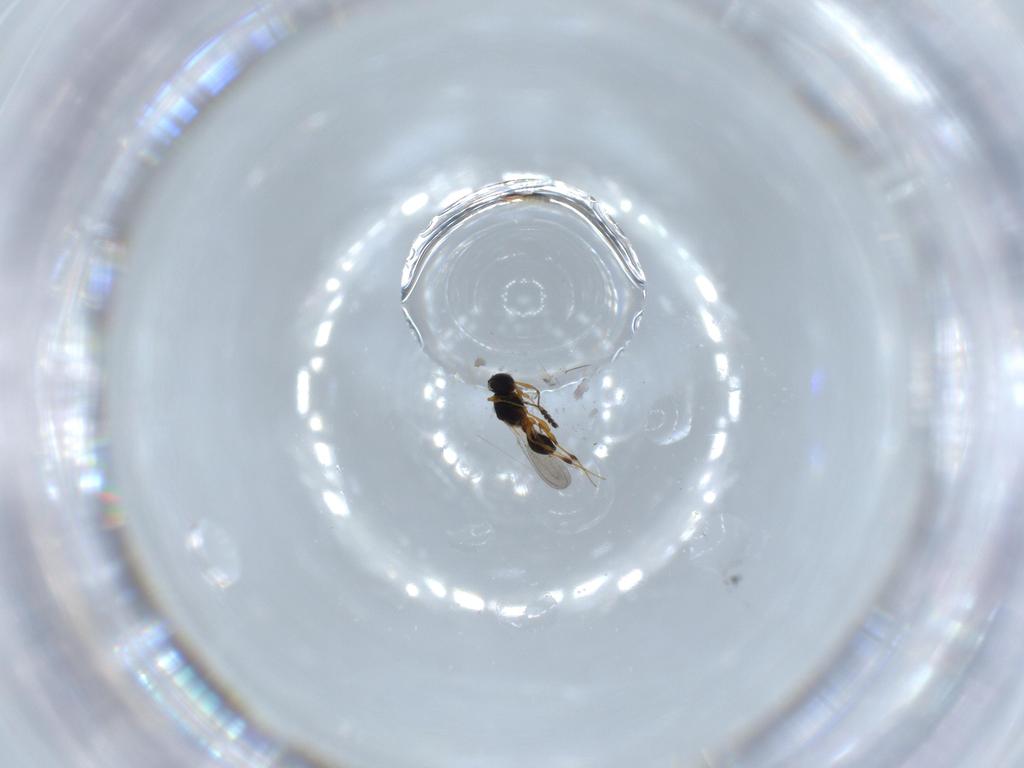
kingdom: Animalia
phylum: Arthropoda
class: Insecta
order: Hymenoptera
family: Platygastridae
